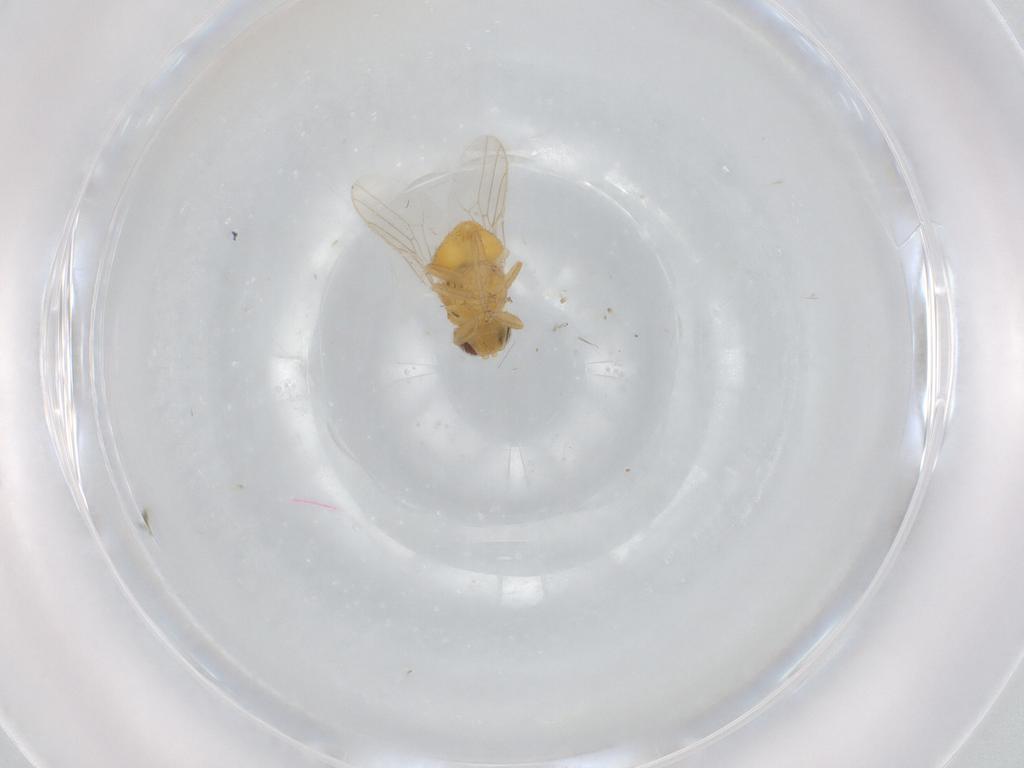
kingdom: Animalia
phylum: Arthropoda
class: Insecta
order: Diptera
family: Chloropidae
